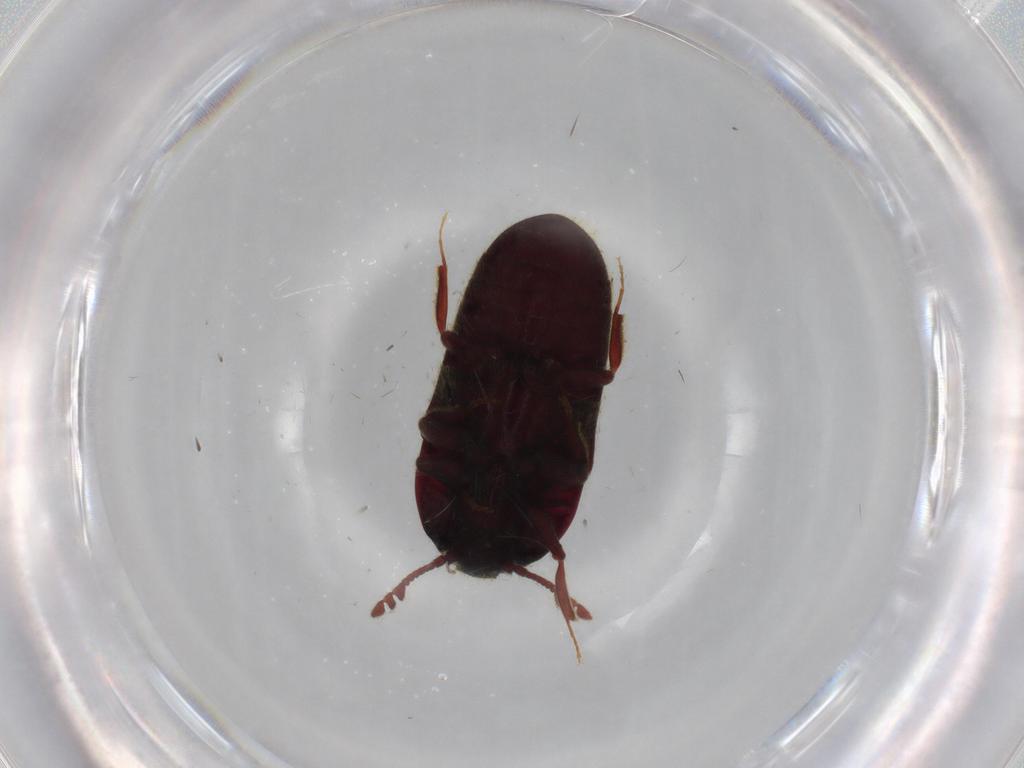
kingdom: Animalia
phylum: Arthropoda
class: Insecta
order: Coleoptera
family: Throscidae
